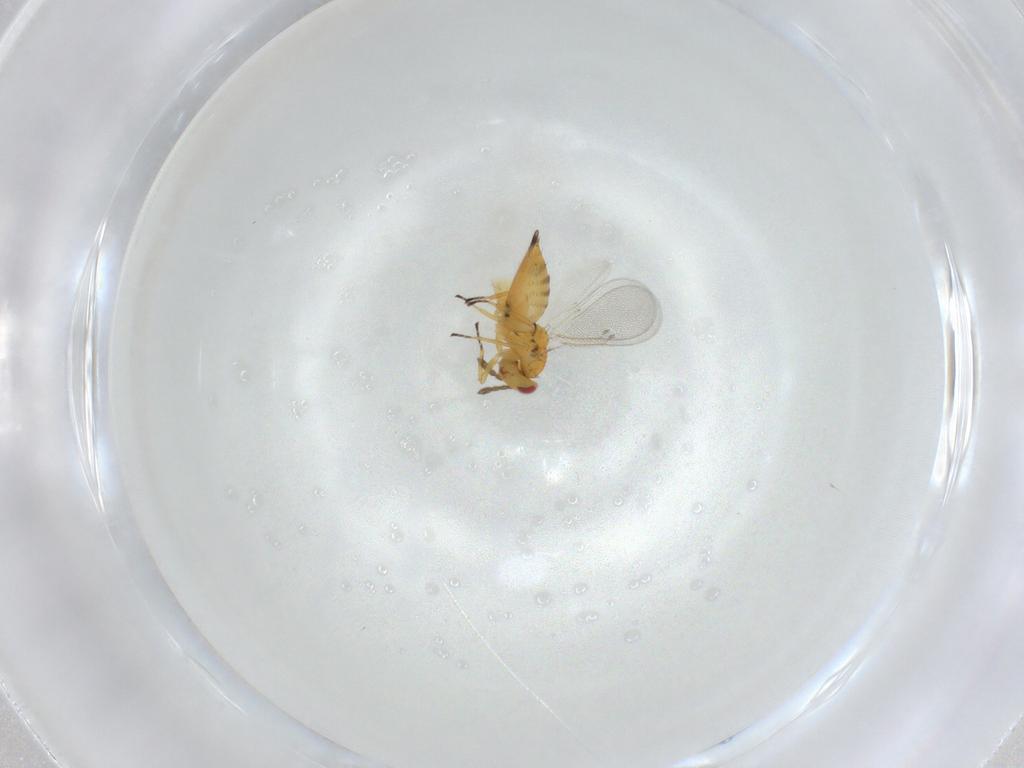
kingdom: Animalia
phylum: Arthropoda
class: Insecta
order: Hymenoptera
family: Eulophidae
